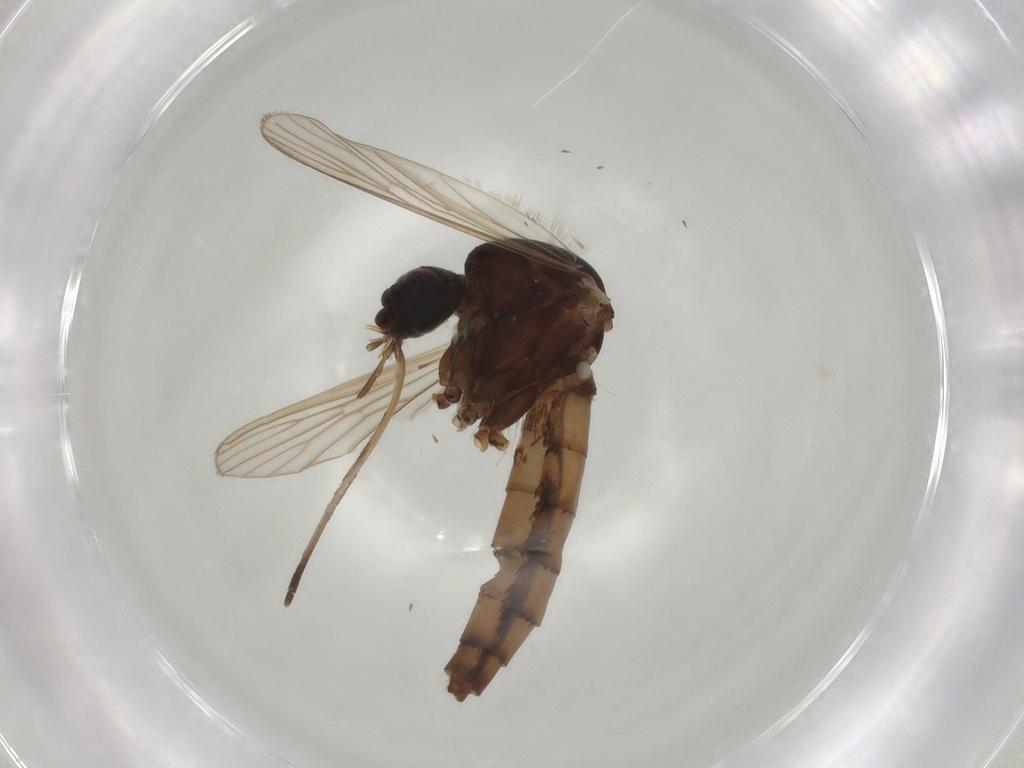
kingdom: Animalia
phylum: Arthropoda
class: Insecta
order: Diptera
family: Culicidae
